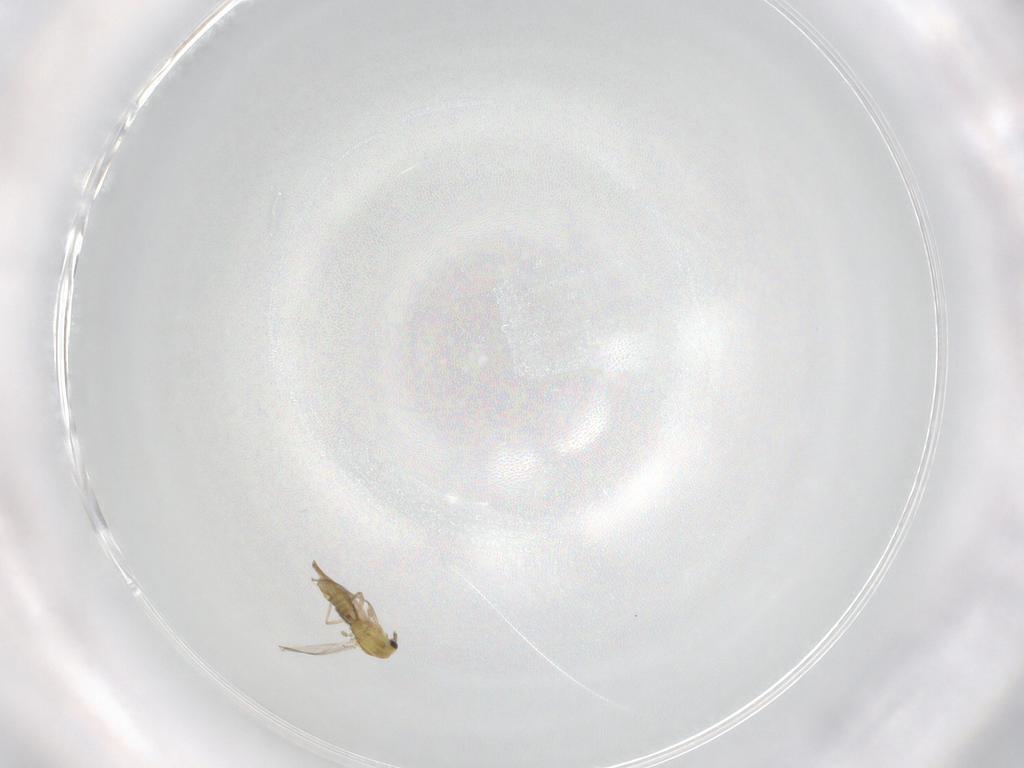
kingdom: Animalia
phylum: Arthropoda
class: Insecta
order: Diptera
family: Chironomidae
